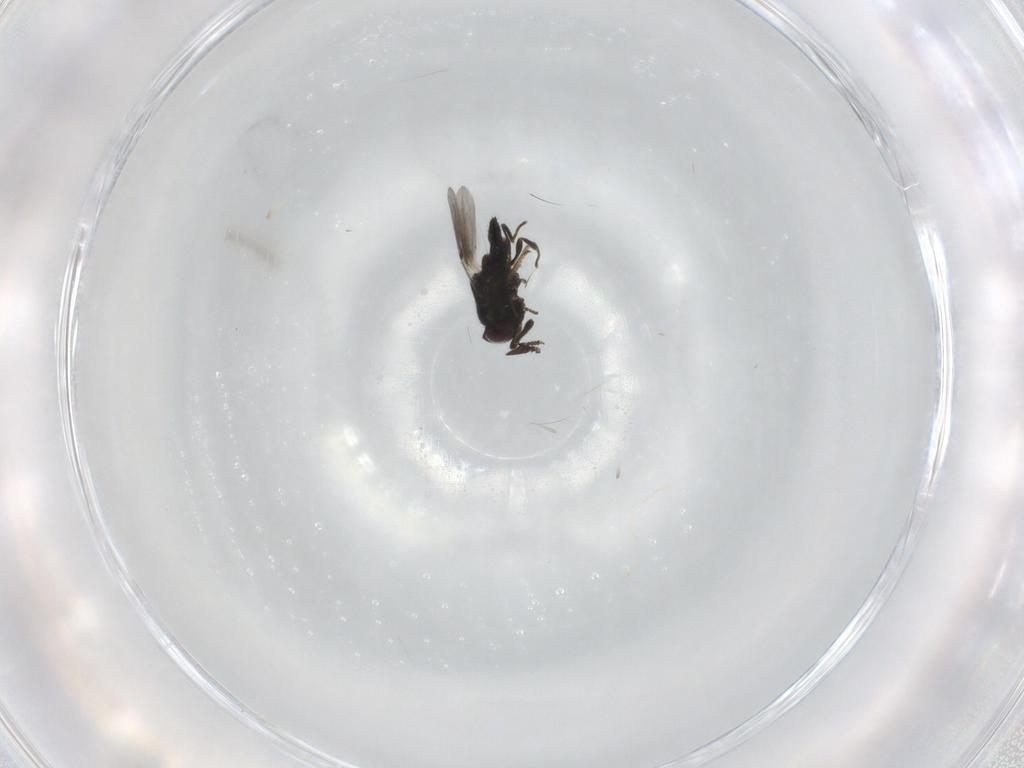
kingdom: Animalia
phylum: Arthropoda
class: Insecta
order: Hymenoptera
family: Encyrtidae
